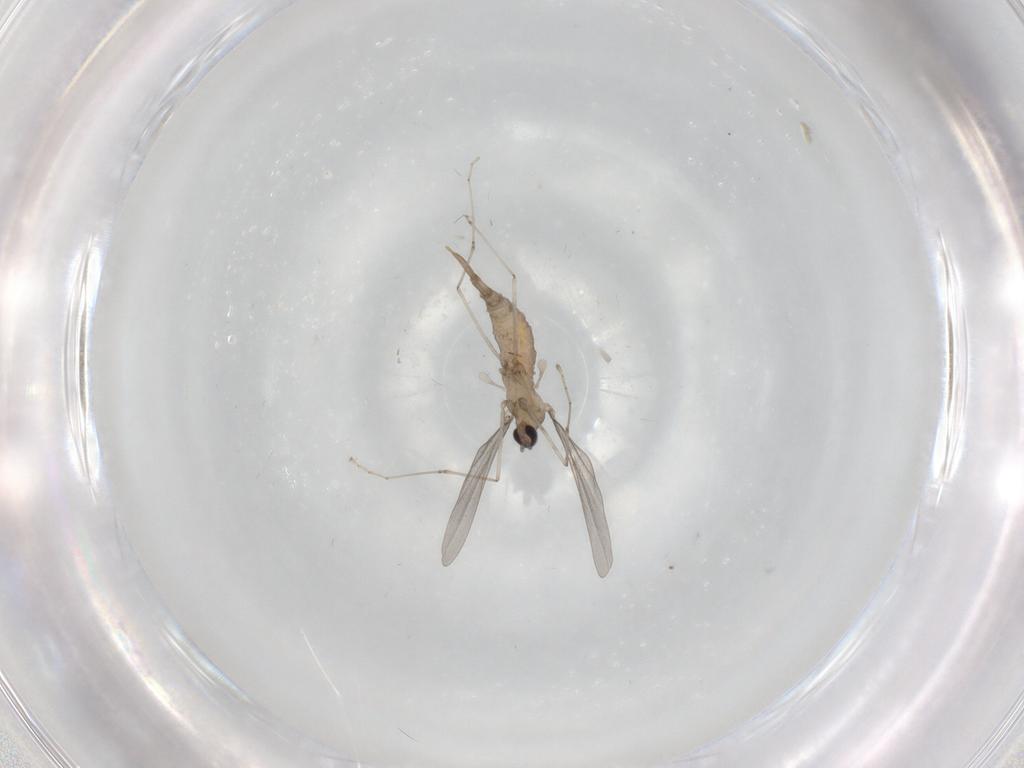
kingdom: Animalia
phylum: Arthropoda
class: Insecta
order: Diptera
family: Cecidomyiidae
